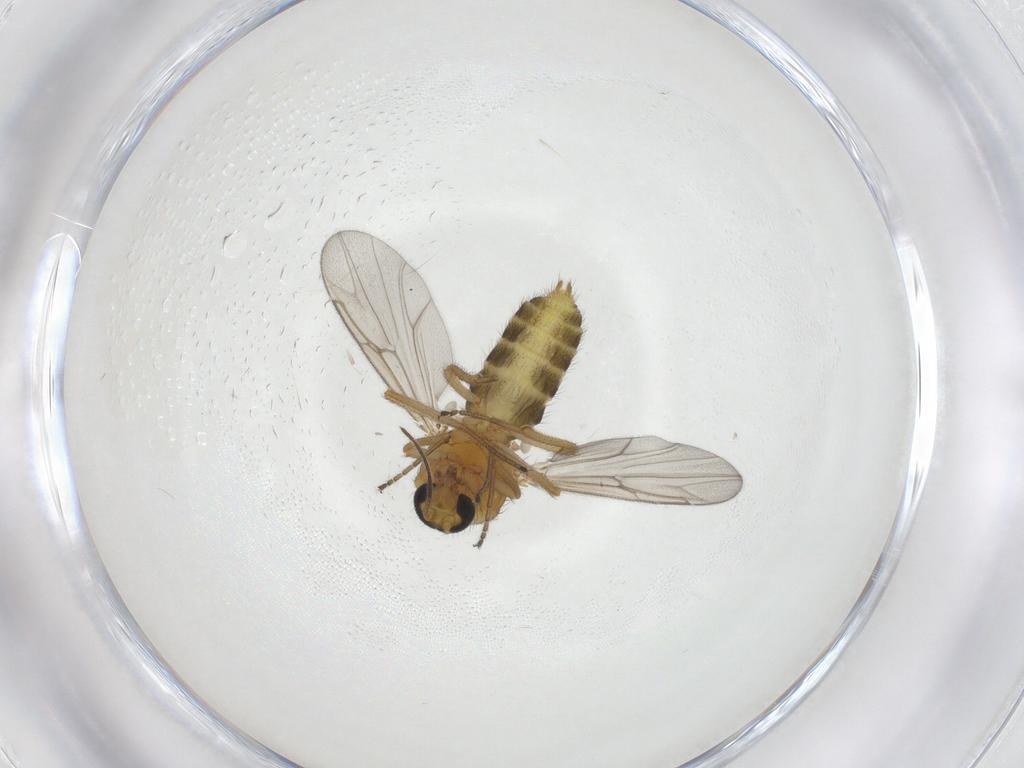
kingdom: Animalia
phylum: Arthropoda
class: Insecta
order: Diptera
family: Ceratopogonidae
